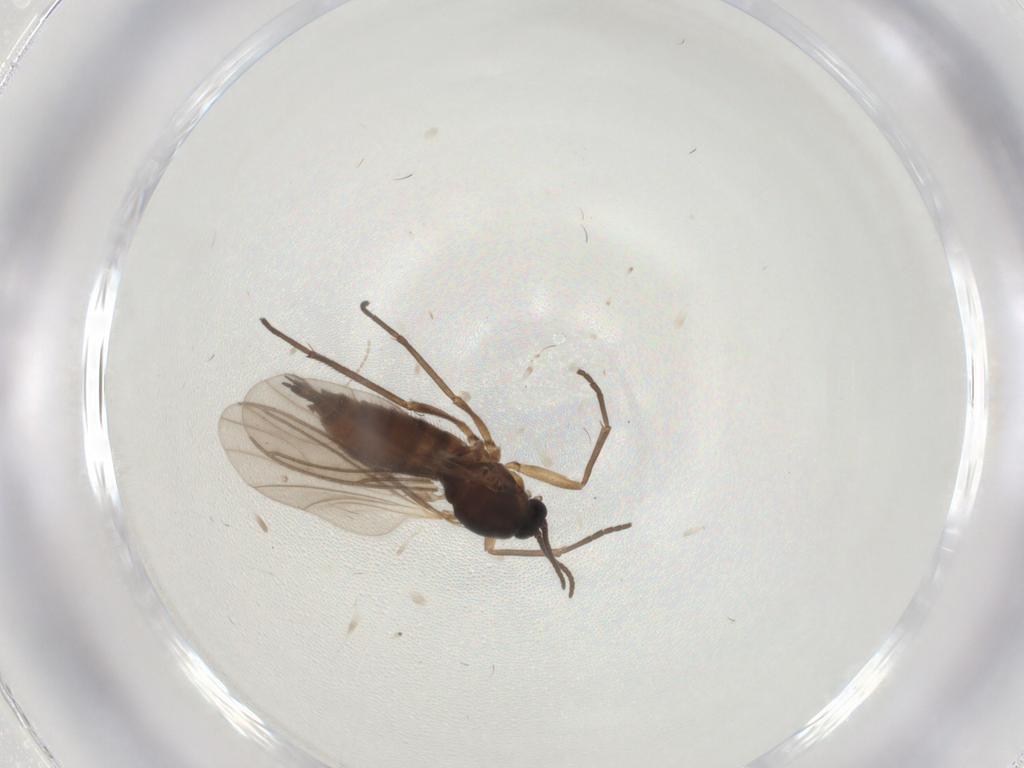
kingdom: Animalia
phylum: Arthropoda
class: Insecta
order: Diptera
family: Sciaridae
